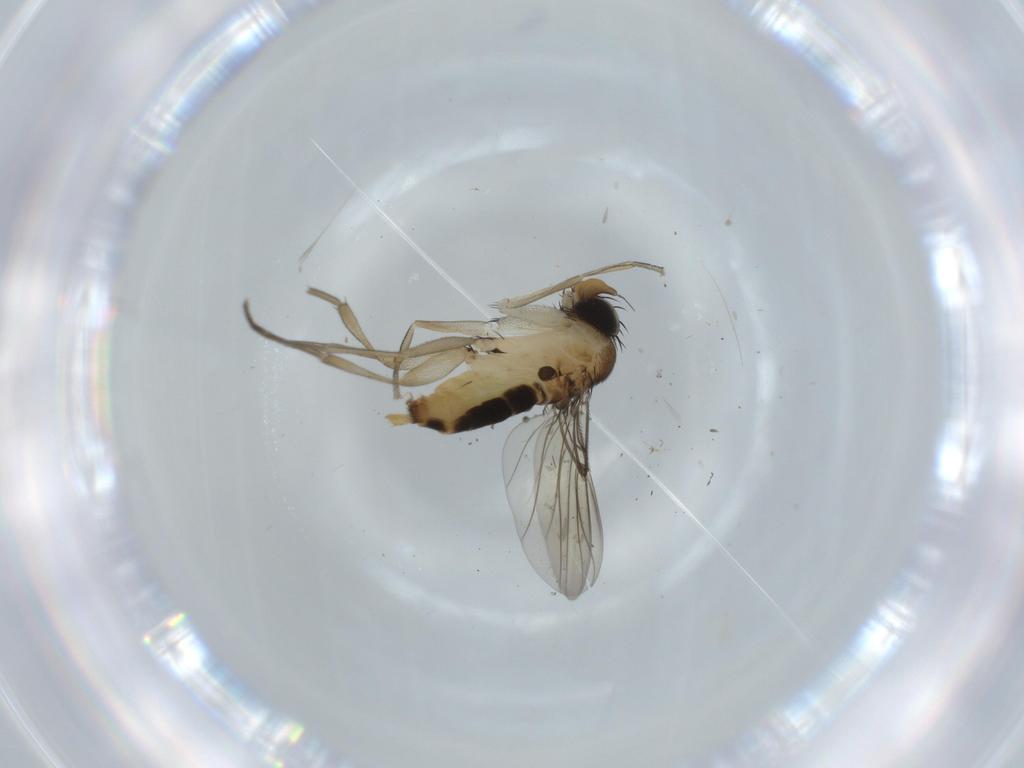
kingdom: Animalia
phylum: Arthropoda
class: Insecta
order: Diptera
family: Phoridae
